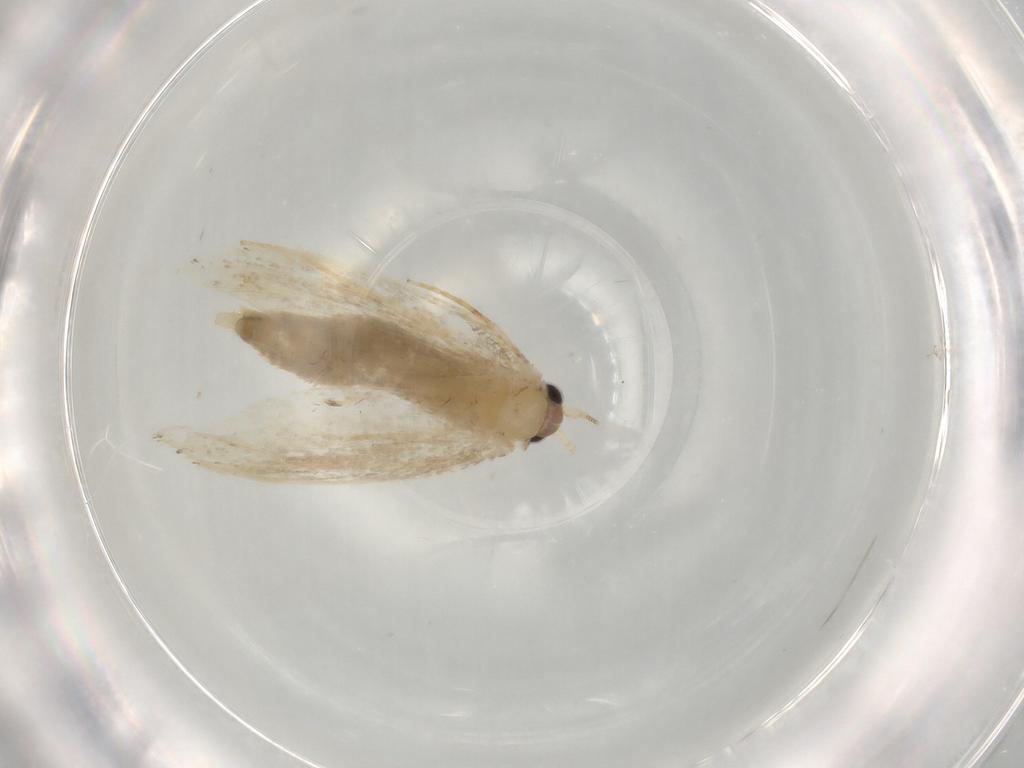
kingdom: Animalia
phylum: Arthropoda
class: Insecta
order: Lepidoptera
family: Nepticulidae
